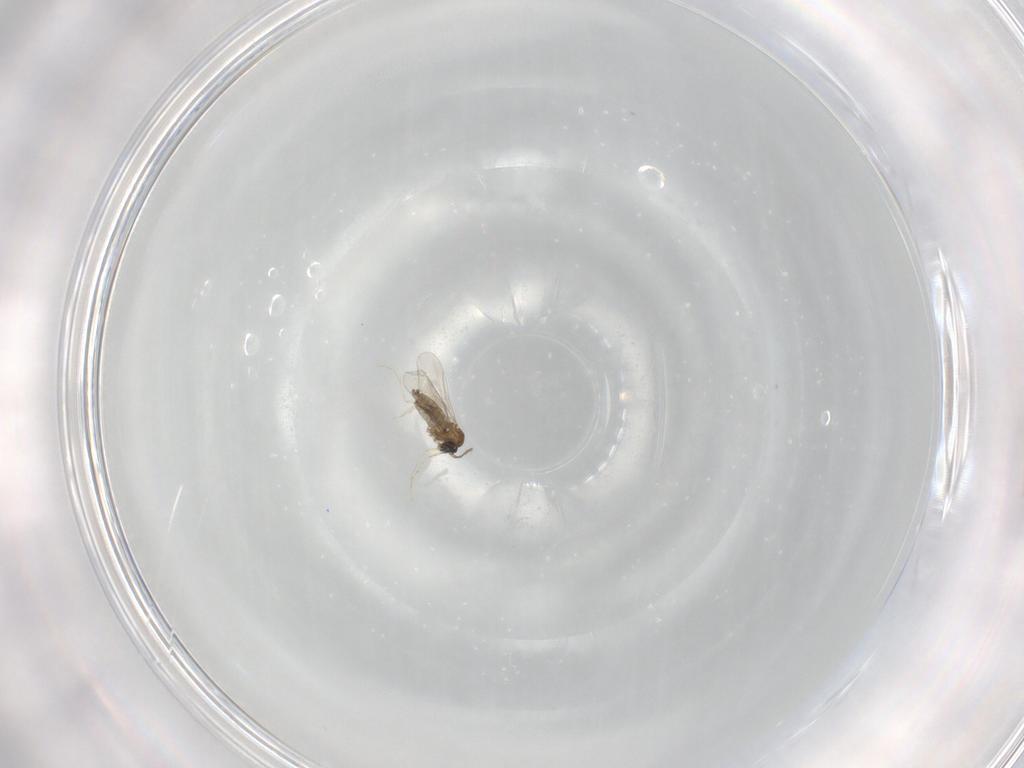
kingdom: Animalia
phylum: Arthropoda
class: Insecta
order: Diptera
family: Cecidomyiidae
